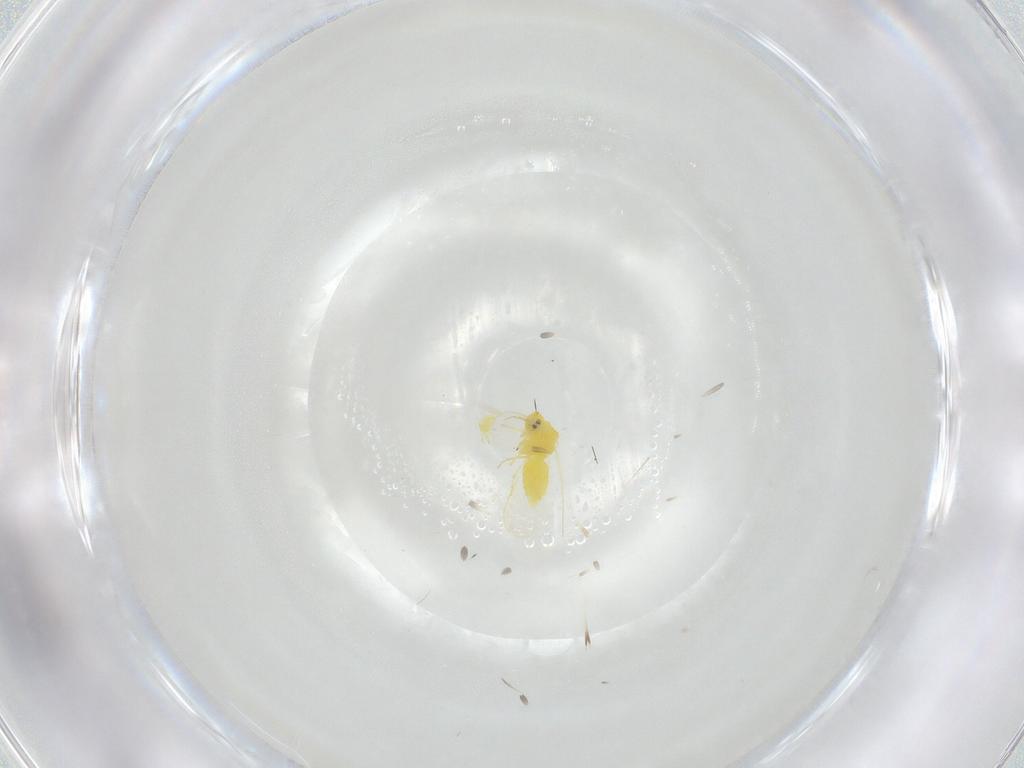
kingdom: Animalia
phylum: Arthropoda
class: Insecta
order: Hemiptera
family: Aleyrodidae
